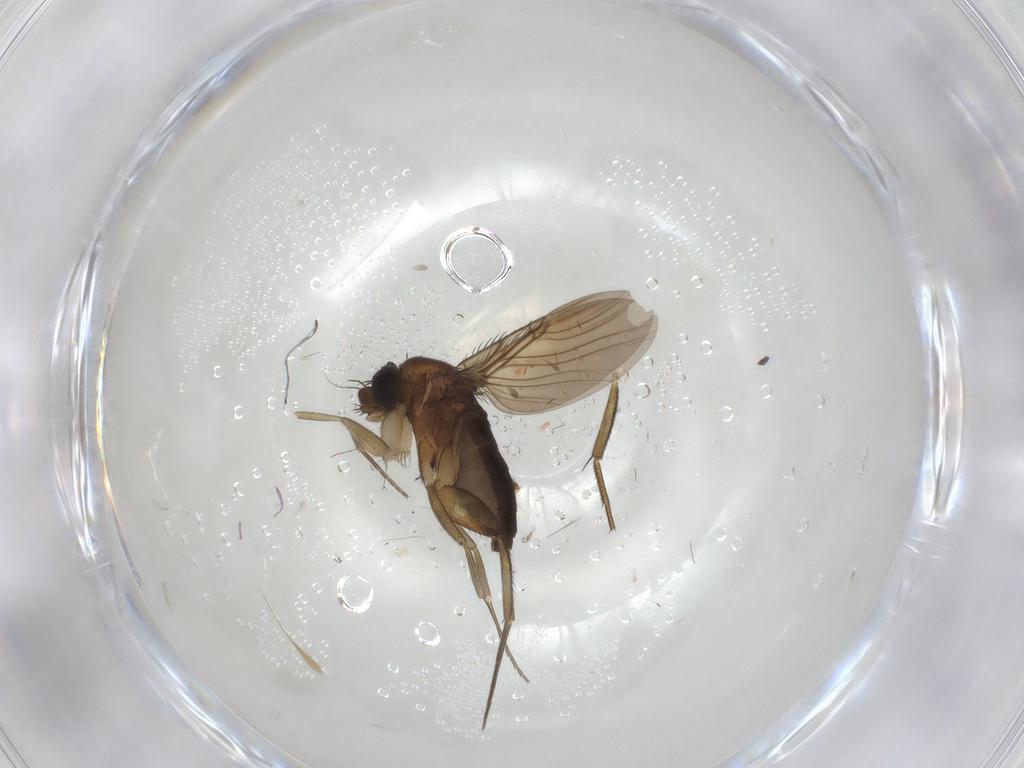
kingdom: Animalia
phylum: Arthropoda
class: Insecta
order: Diptera
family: Phoridae
